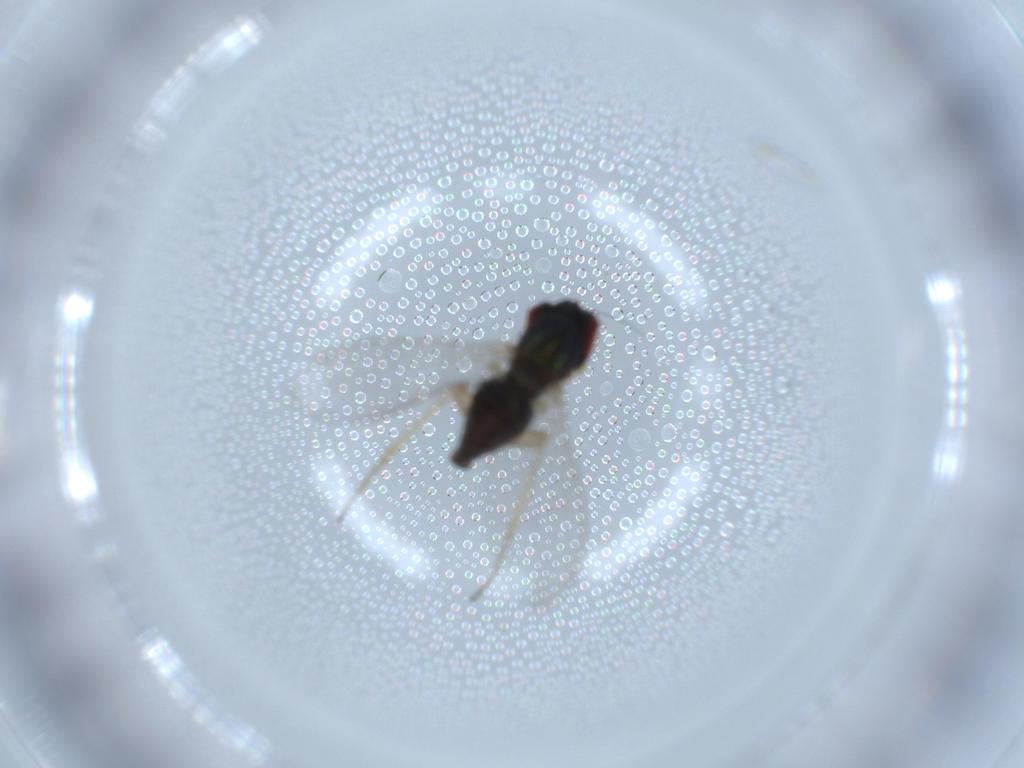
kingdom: Animalia
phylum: Arthropoda
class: Insecta
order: Diptera
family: Dolichopodidae
